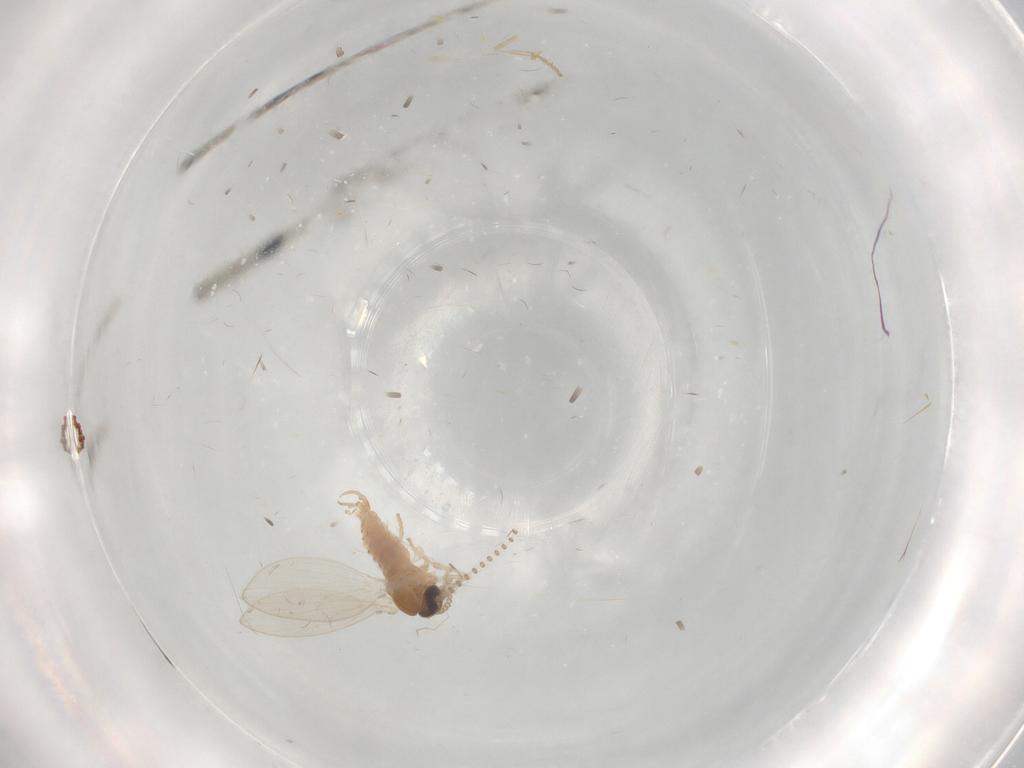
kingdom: Animalia
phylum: Arthropoda
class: Insecta
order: Diptera
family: Psychodidae
